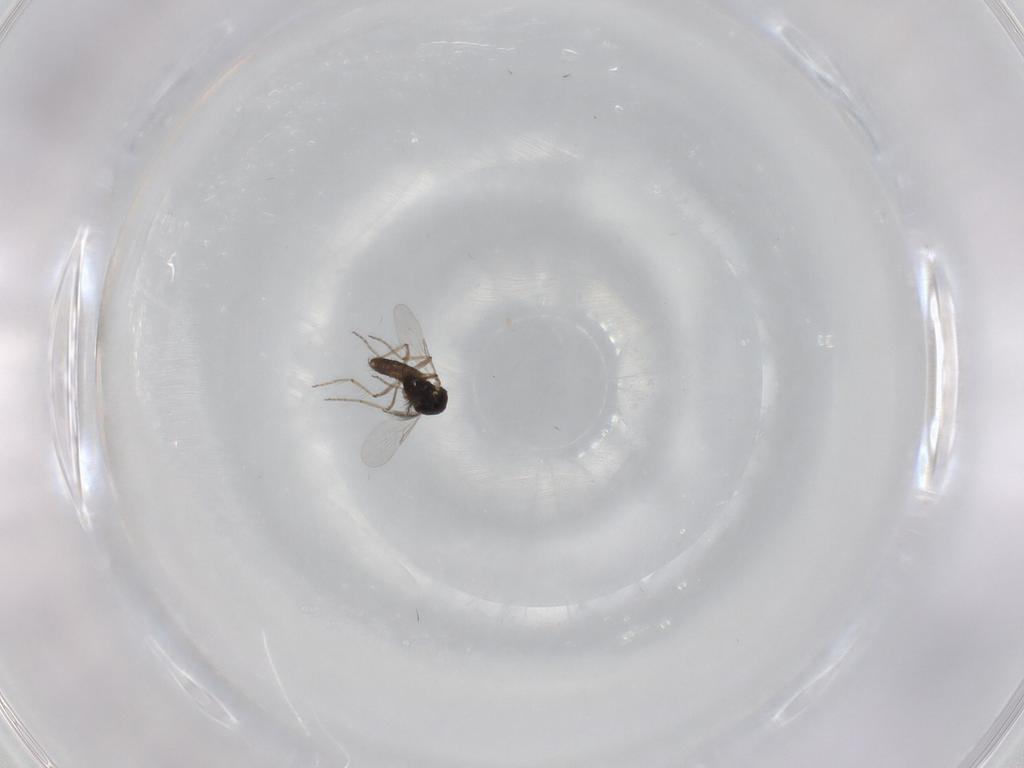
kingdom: Animalia
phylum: Arthropoda
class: Insecta
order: Diptera
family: Ceratopogonidae
